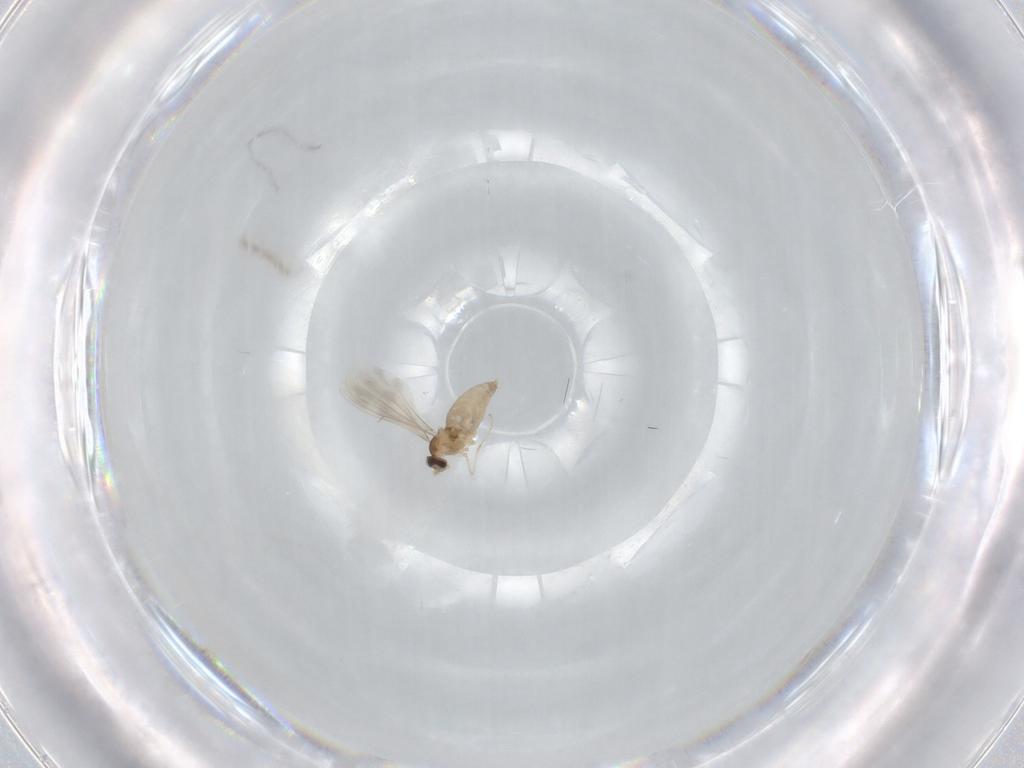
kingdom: Animalia
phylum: Arthropoda
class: Insecta
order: Diptera
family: Cecidomyiidae
